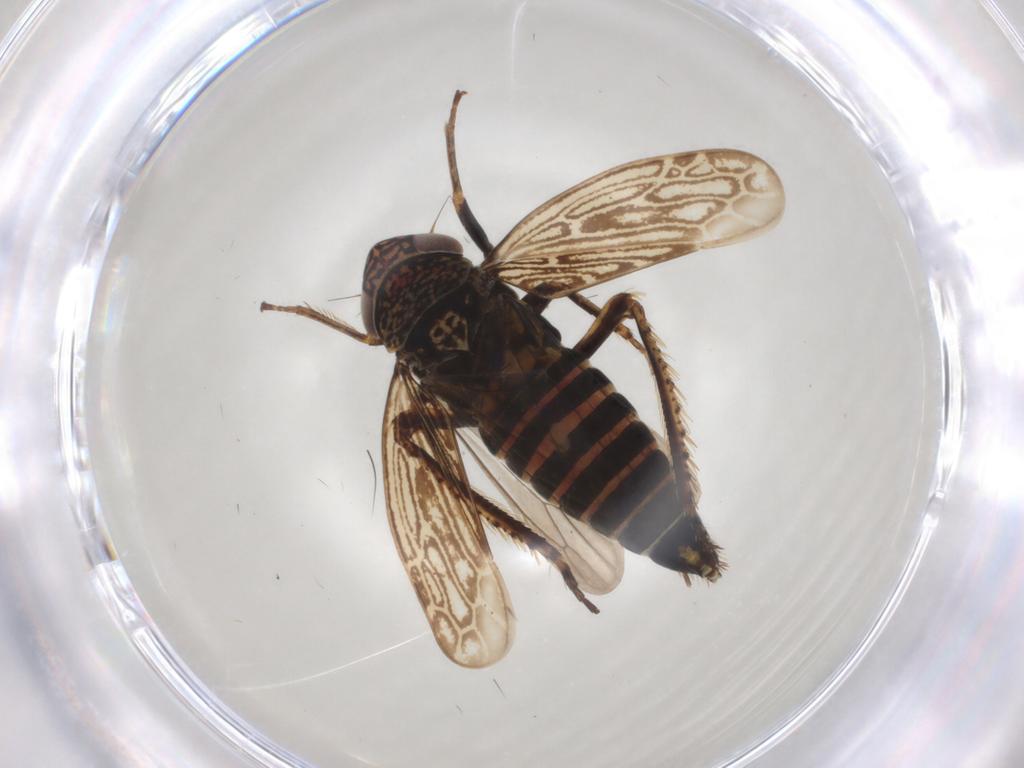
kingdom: Animalia
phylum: Arthropoda
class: Insecta
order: Hemiptera
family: Cicadellidae
